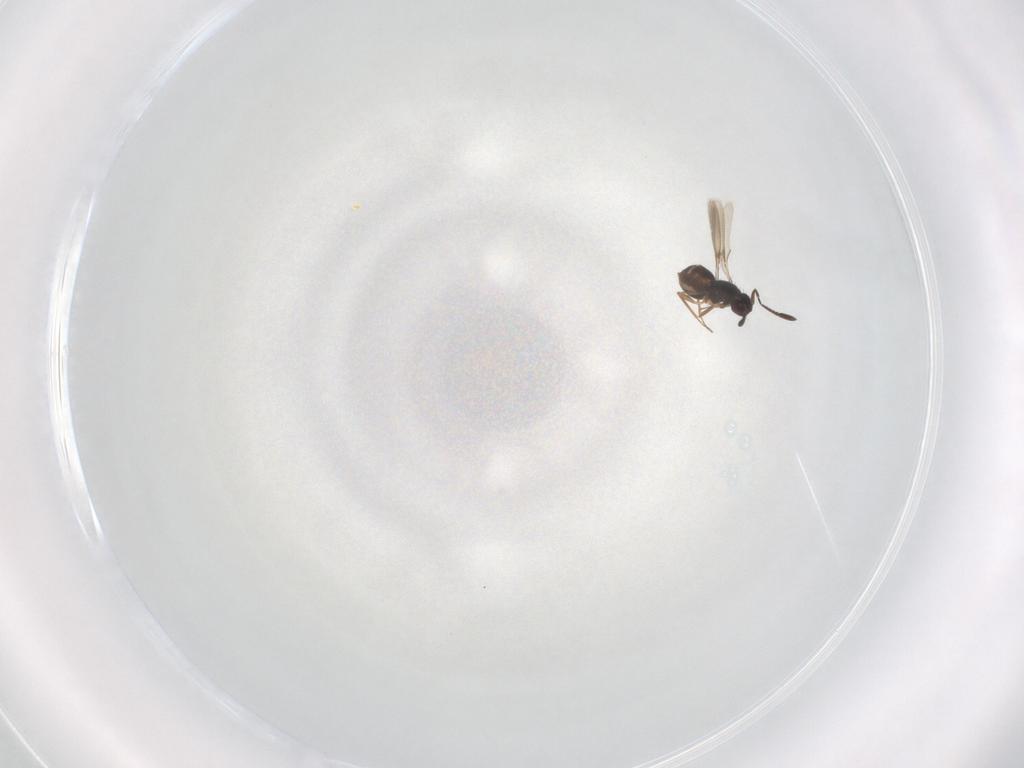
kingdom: Animalia
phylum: Arthropoda
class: Insecta
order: Hymenoptera
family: Mymaridae
